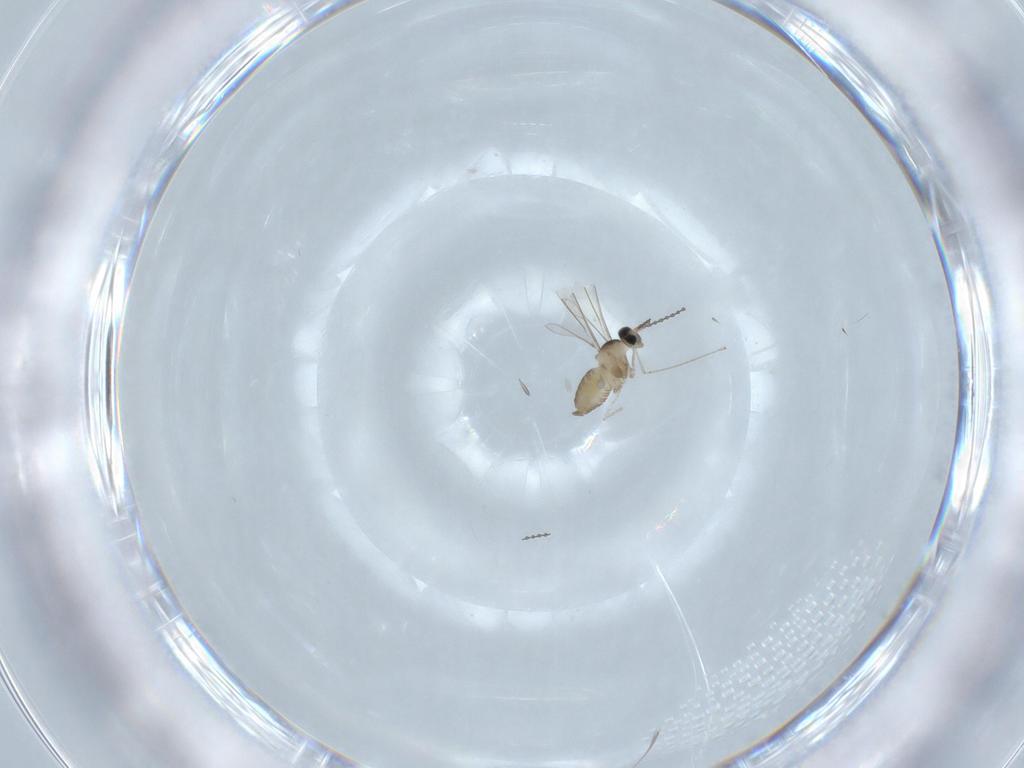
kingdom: Animalia
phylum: Arthropoda
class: Insecta
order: Diptera
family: Cecidomyiidae
